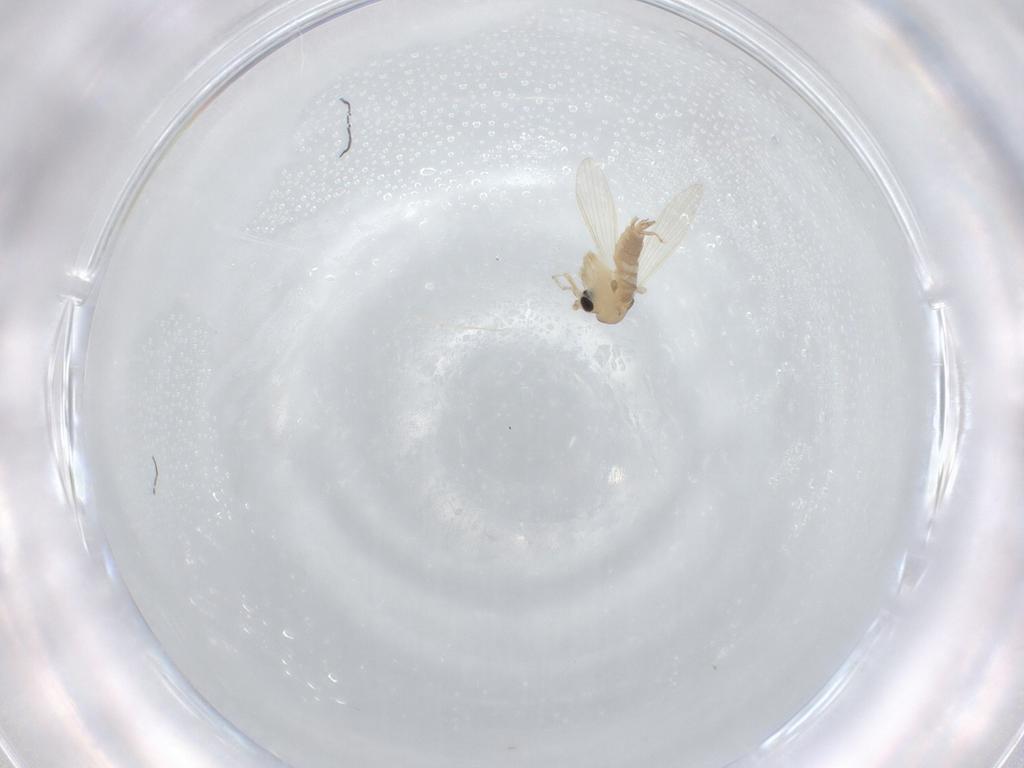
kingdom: Animalia
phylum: Arthropoda
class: Insecta
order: Diptera
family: Psychodidae
